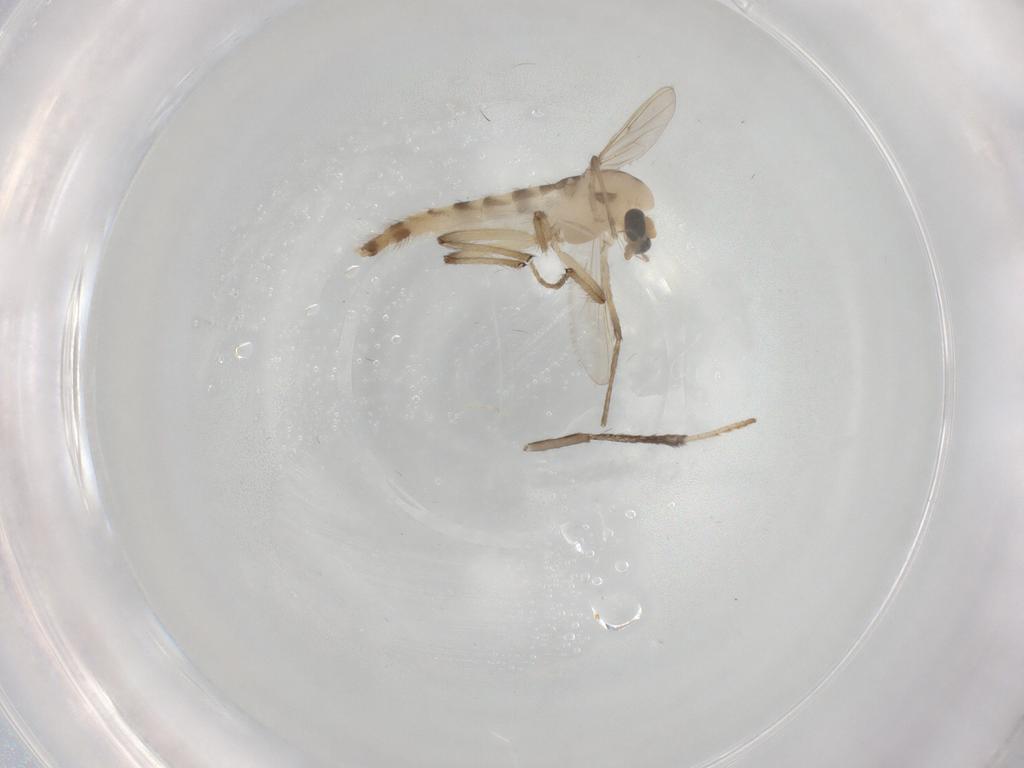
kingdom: Animalia
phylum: Arthropoda
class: Insecta
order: Diptera
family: Chironomidae
